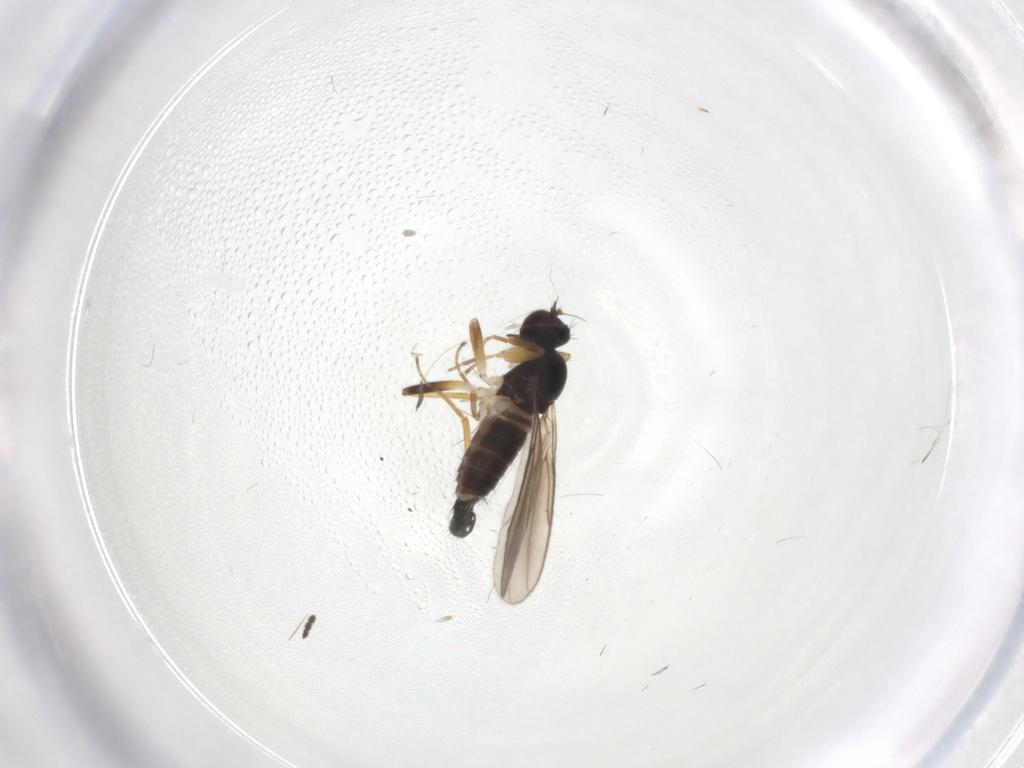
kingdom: Animalia
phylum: Arthropoda
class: Insecta
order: Diptera
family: Hybotidae
